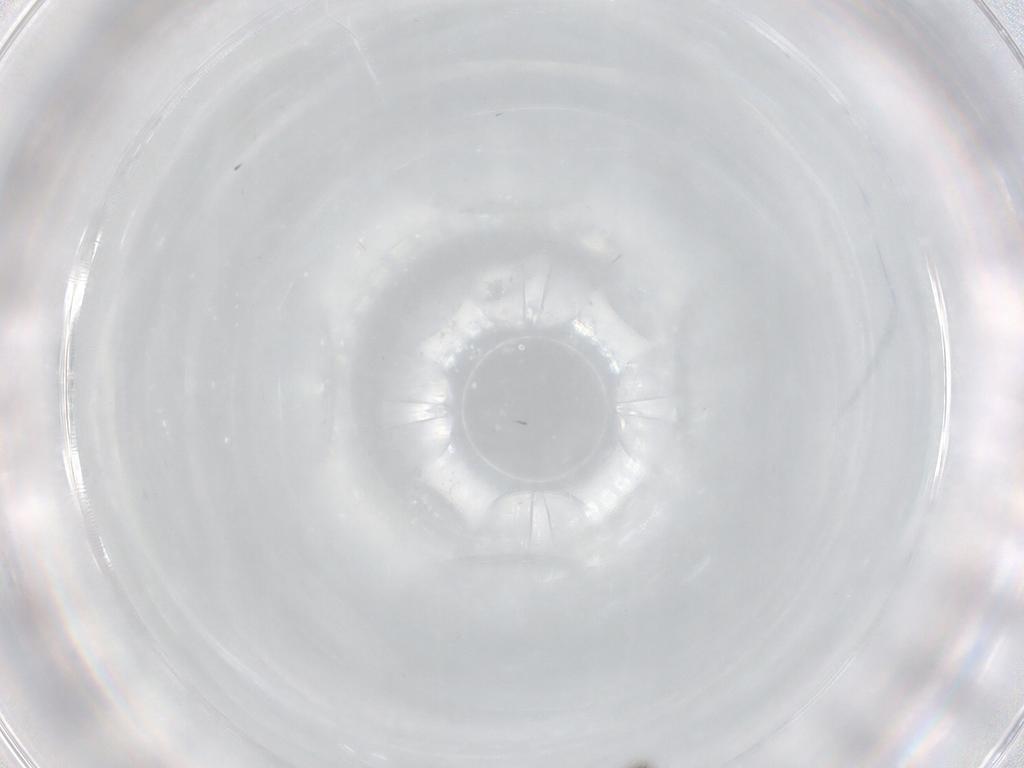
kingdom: Animalia
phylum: Arthropoda
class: Insecta
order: Diptera
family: Cecidomyiidae
